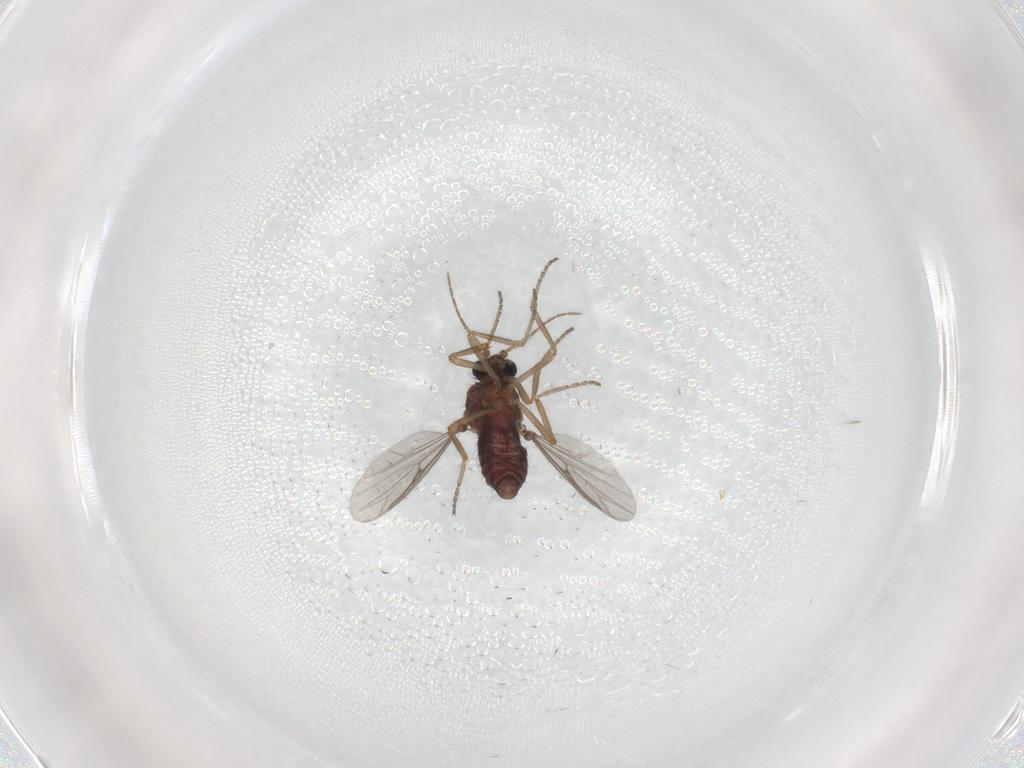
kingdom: Animalia
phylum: Arthropoda
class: Insecta
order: Diptera
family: Ceratopogonidae
